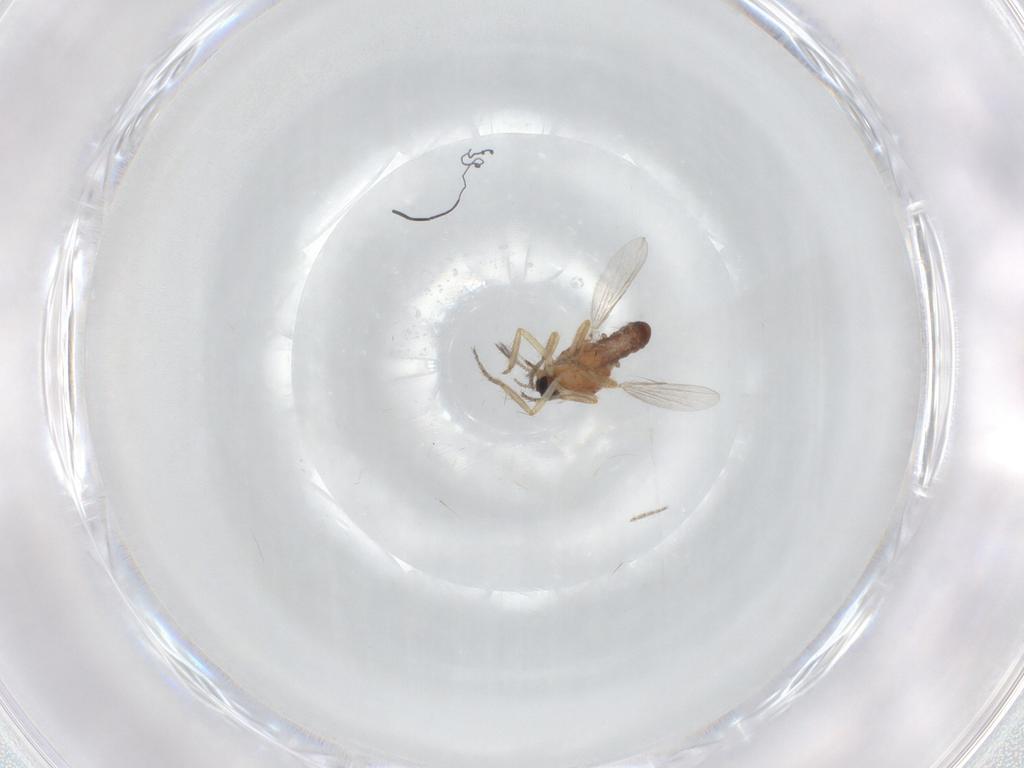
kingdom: Animalia
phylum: Arthropoda
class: Insecta
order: Diptera
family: Ceratopogonidae
